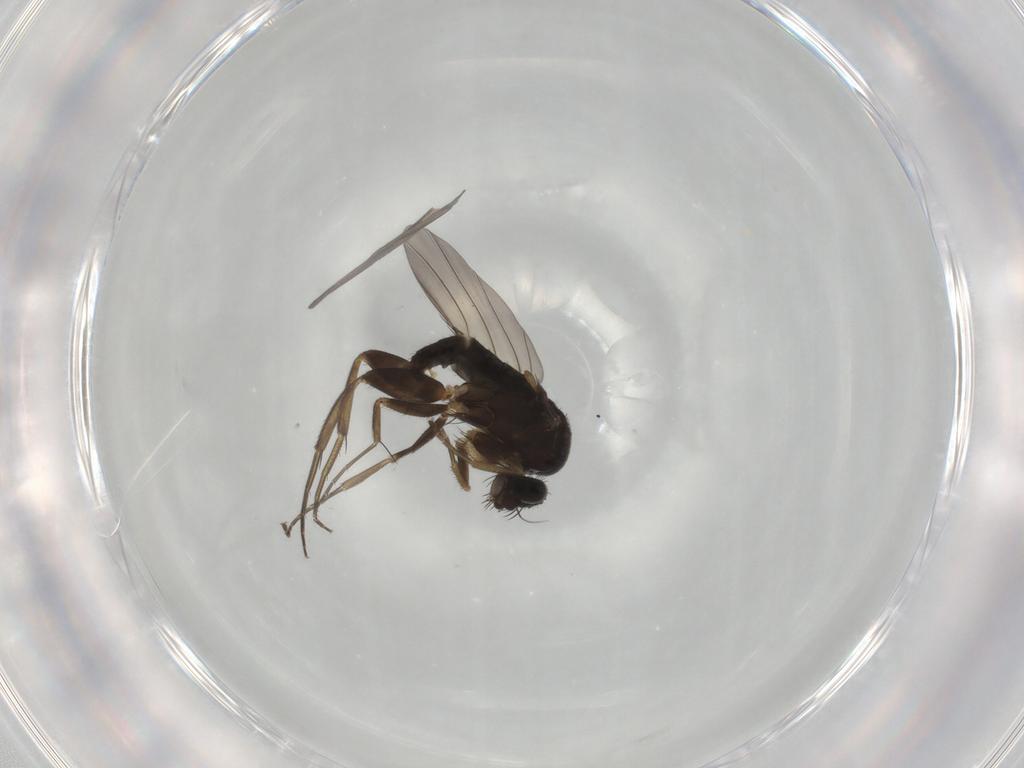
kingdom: Animalia
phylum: Arthropoda
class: Insecta
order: Diptera
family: Phoridae
